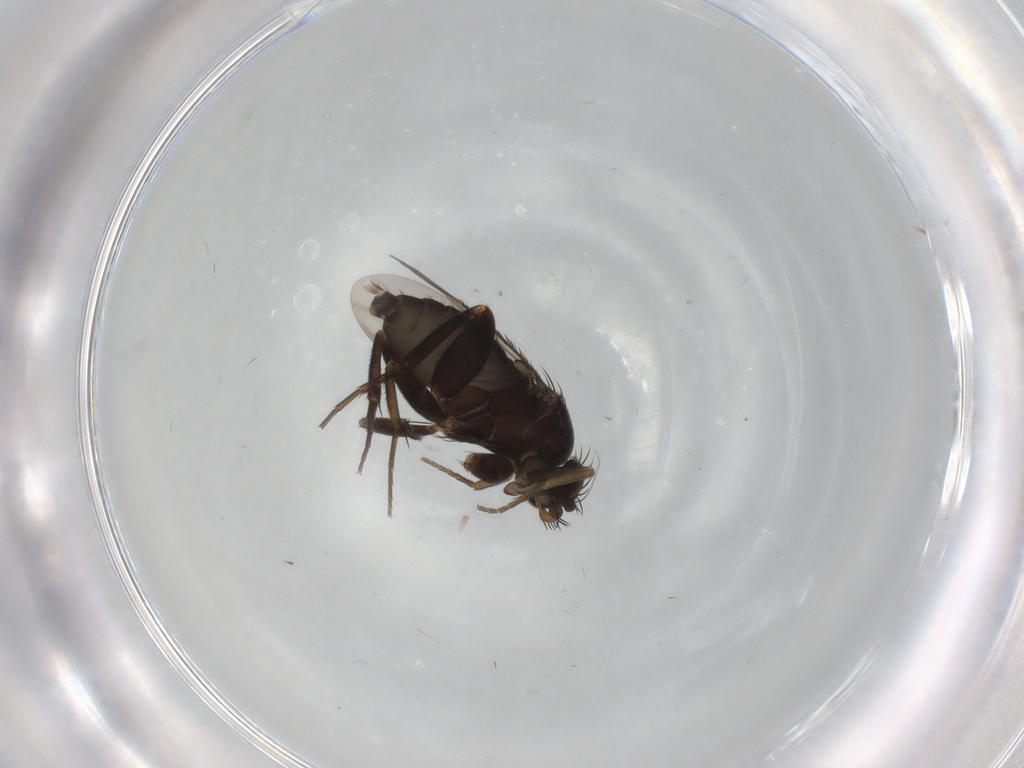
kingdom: Animalia
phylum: Arthropoda
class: Insecta
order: Diptera
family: Phoridae
